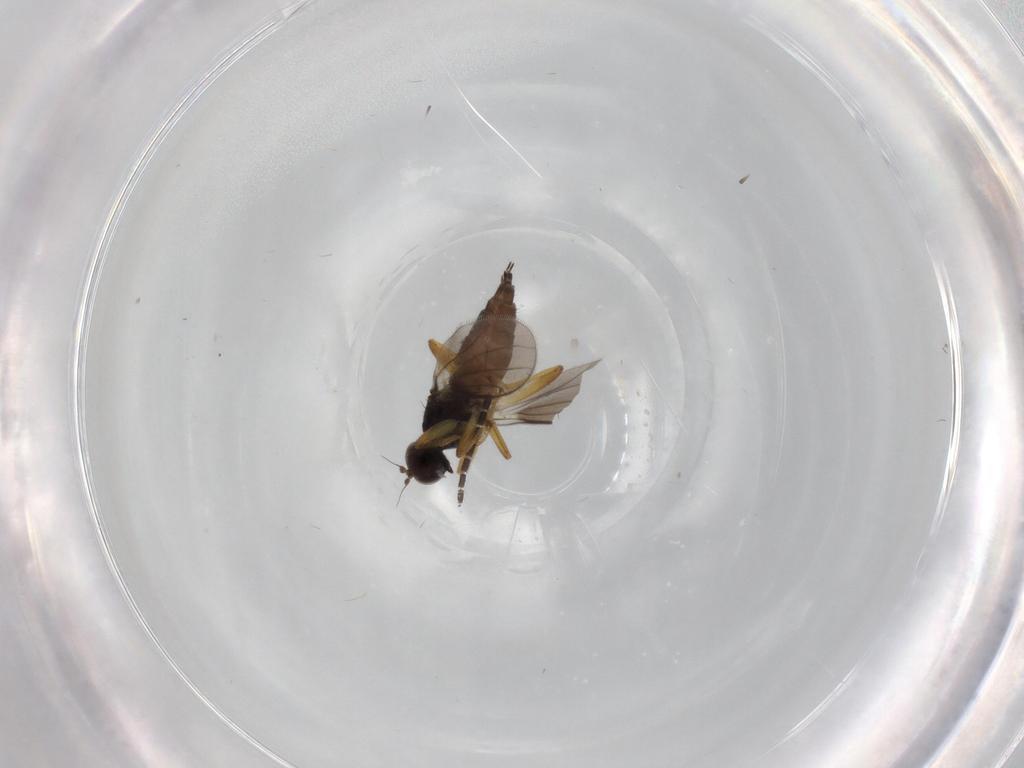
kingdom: Animalia
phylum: Arthropoda
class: Insecta
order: Diptera
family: Hybotidae
